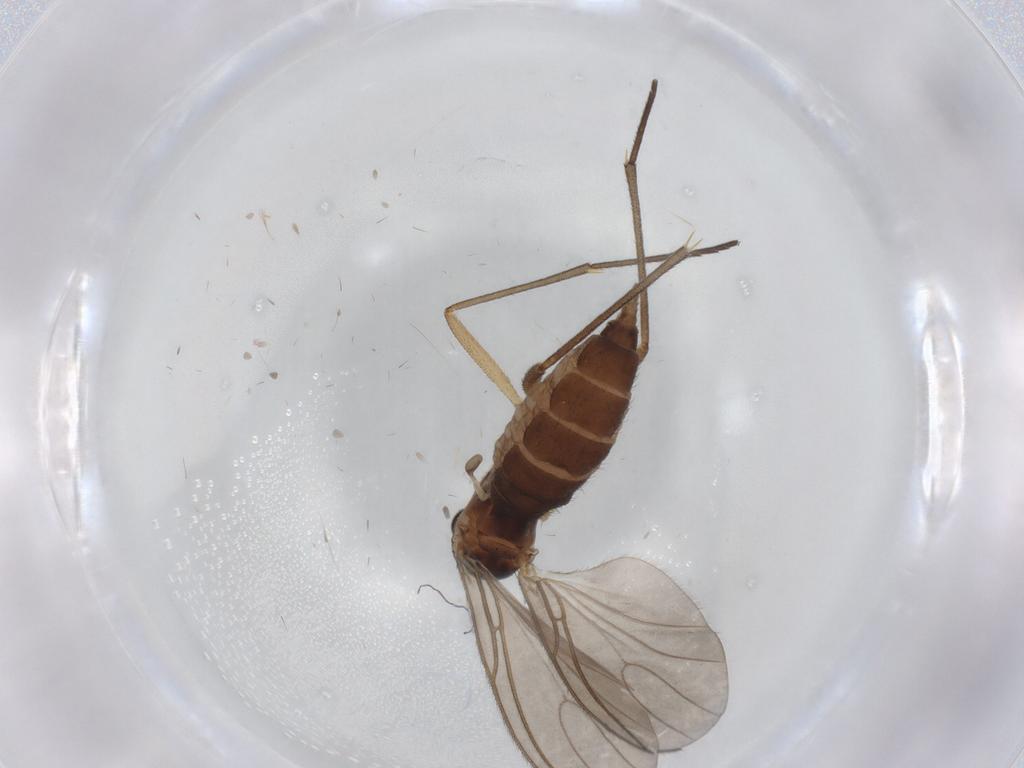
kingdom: Animalia
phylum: Arthropoda
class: Insecta
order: Diptera
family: Sciaridae
